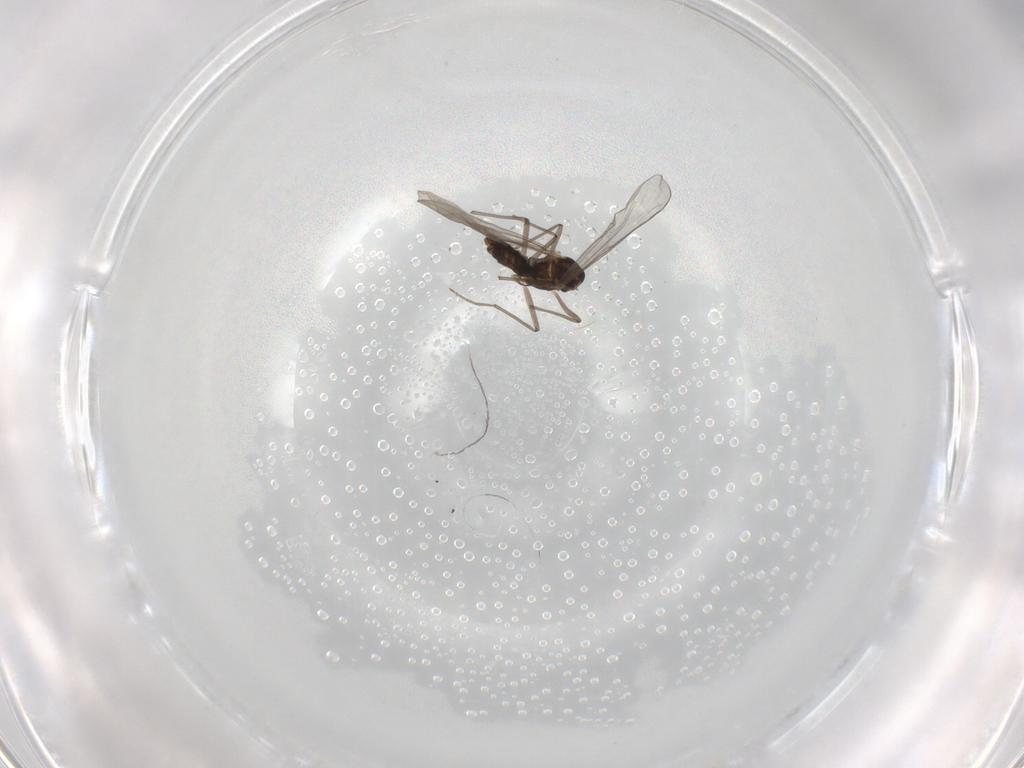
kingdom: Animalia
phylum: Arthropoda
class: Insecta
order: Diptera
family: Chironomidae
